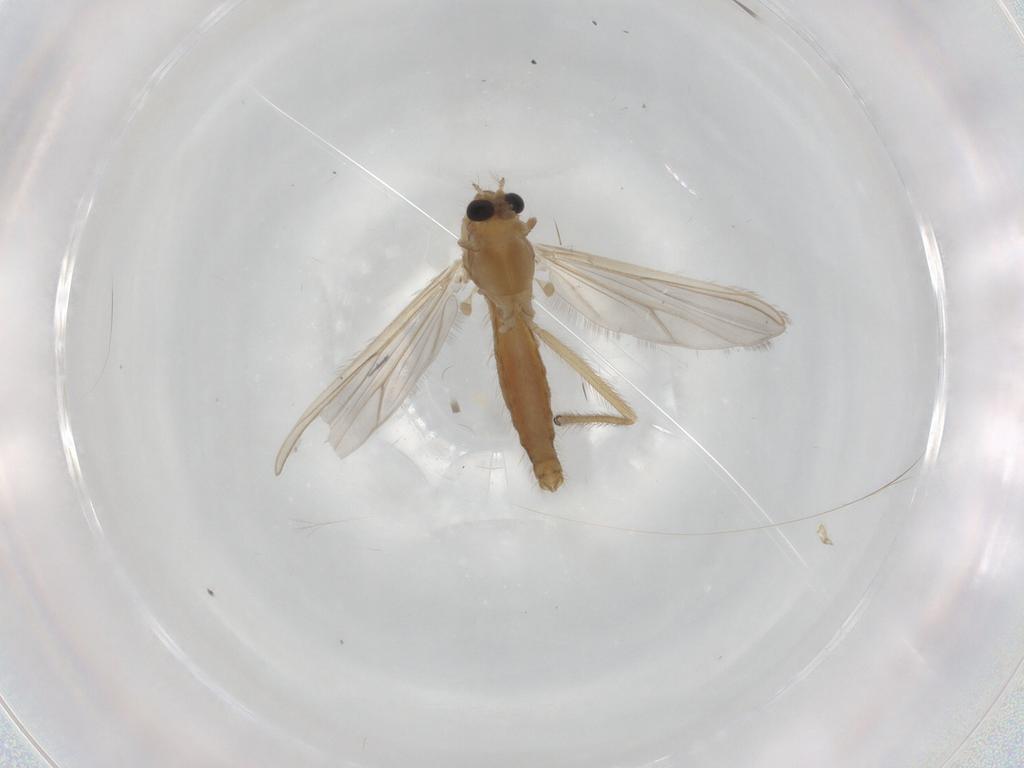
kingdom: Animalia
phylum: Arthropoda
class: Insecta
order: Diptera
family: Chironomidae
